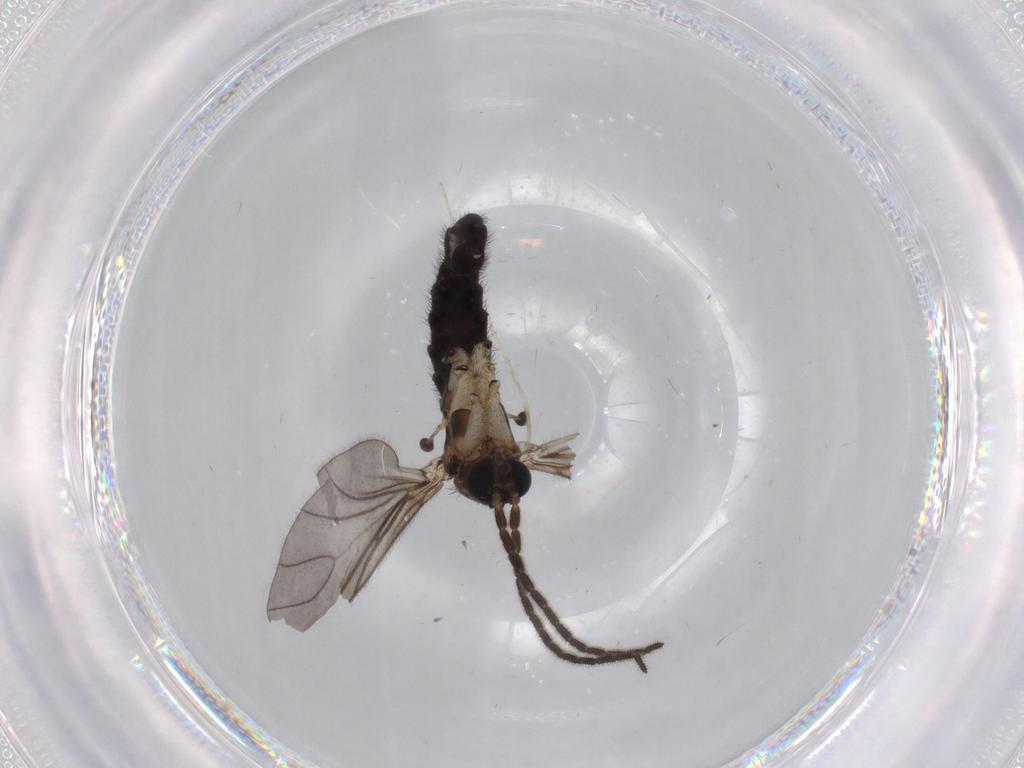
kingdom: Animalia
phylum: Arthropoda
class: Insecta
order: Diptera
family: Sciaridae
